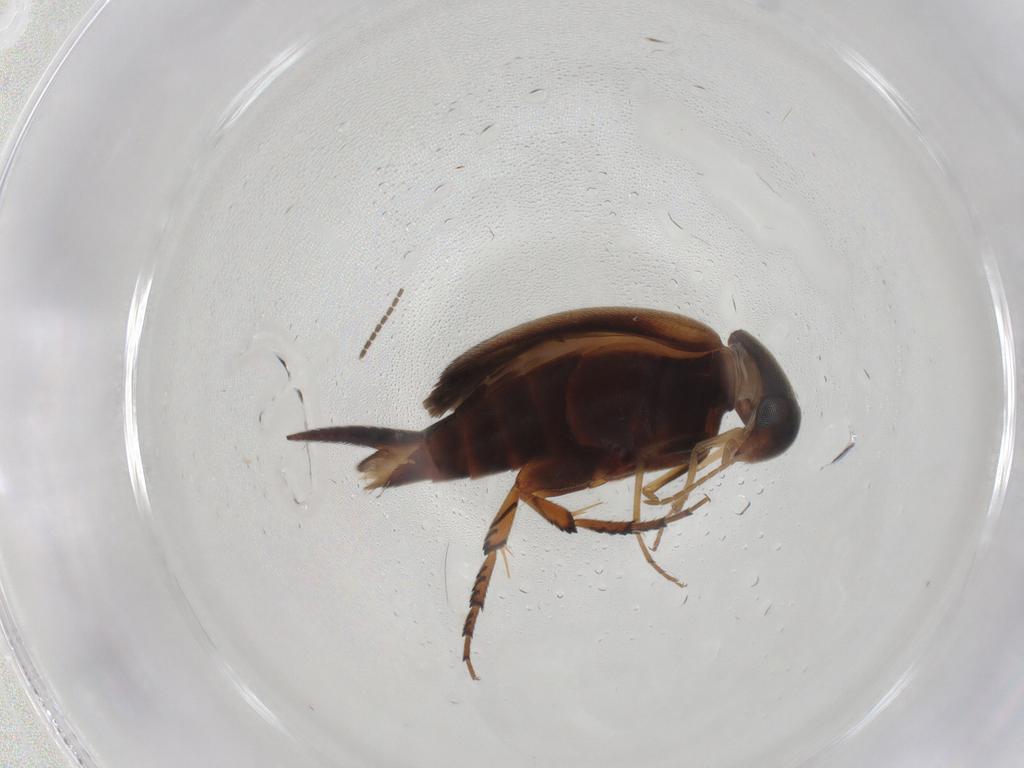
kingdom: Animalia
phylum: Arthropoda
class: Insecta
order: Coleoptera
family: Mordellidae
